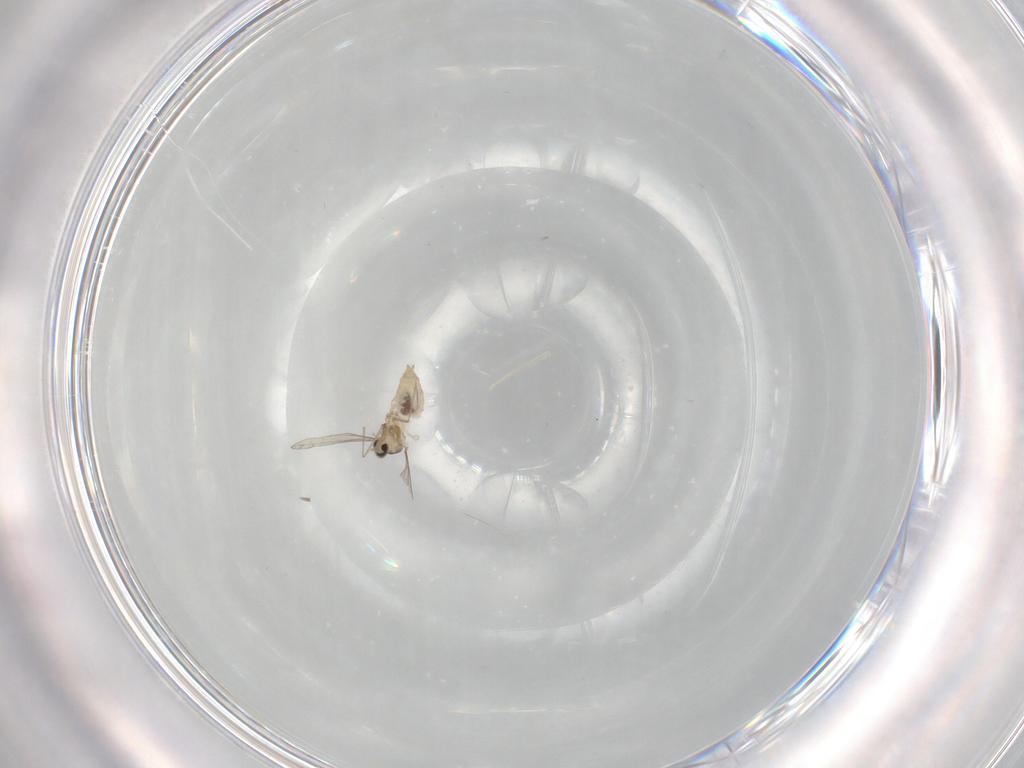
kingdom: Animalia
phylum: Arthropoda
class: Insecta
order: Diptera
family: Cecidomyiidae
